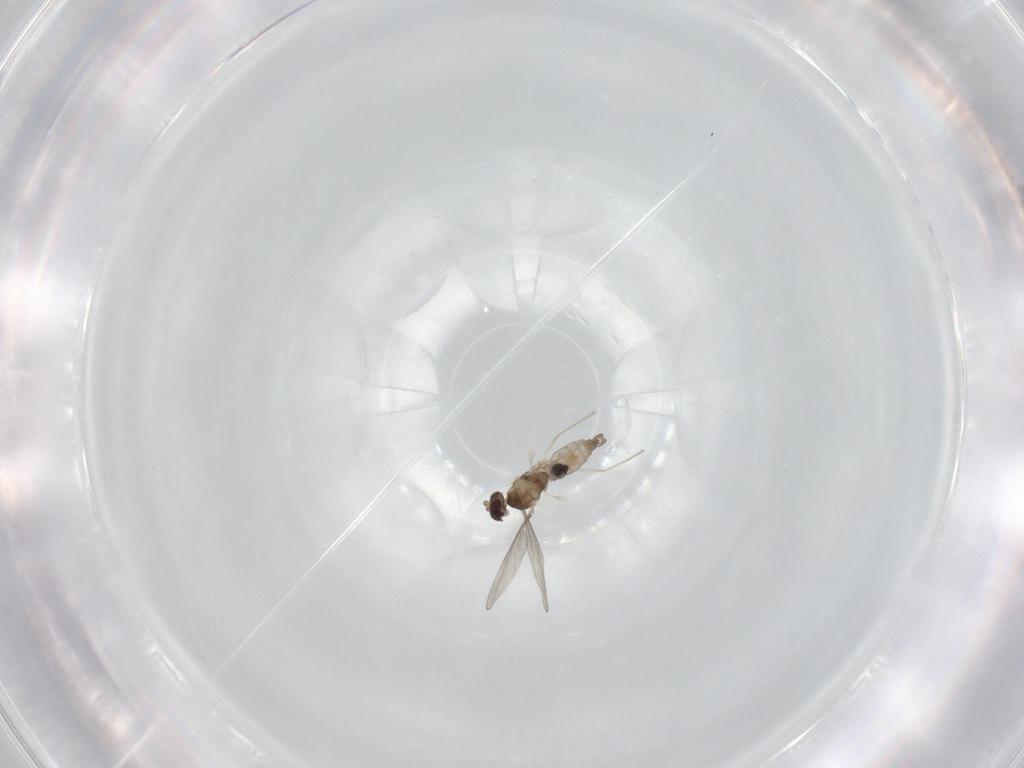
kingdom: Animalia
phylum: Arthropoda
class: Insecta
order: Diptera
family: Cecidomyiidae
